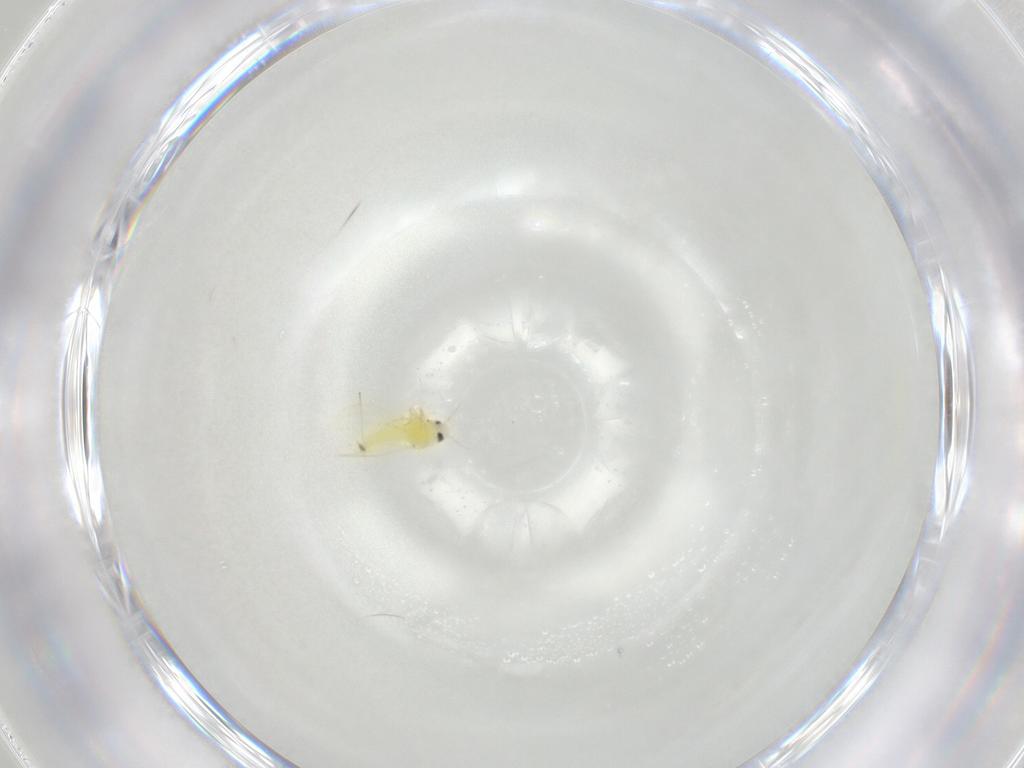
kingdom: Animalia
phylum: Arthropoda
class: Insecta
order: Hemiptera
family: Aleyrodidae
